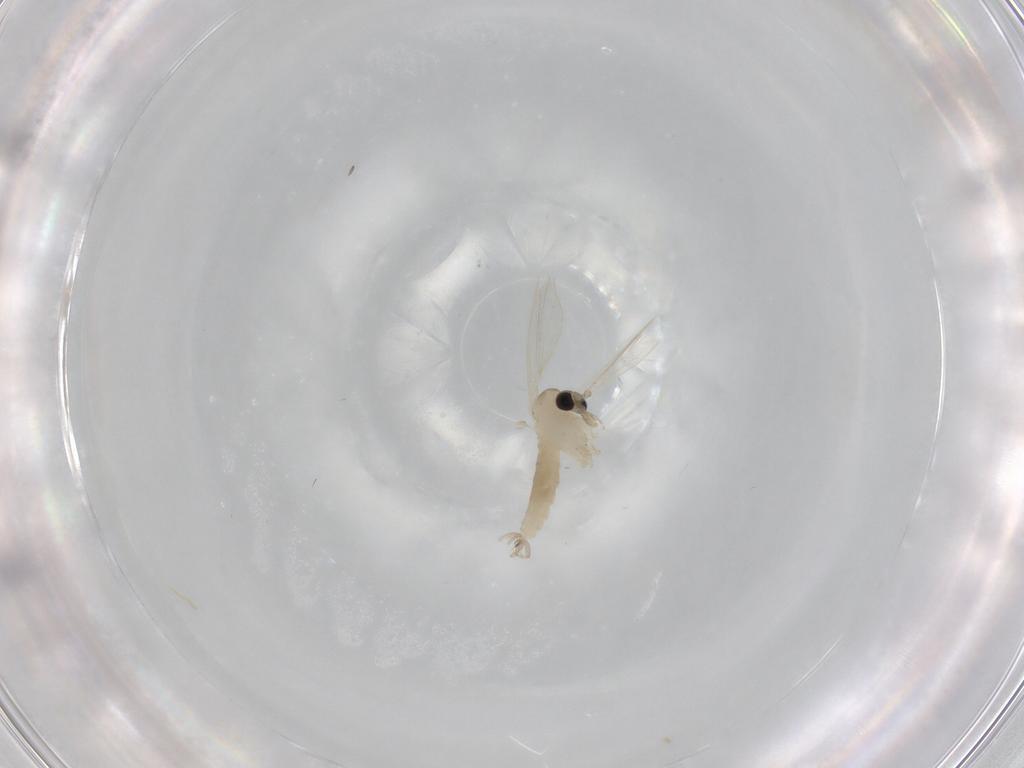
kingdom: Animalia
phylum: Arthropoda
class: Insecta
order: Diptera
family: Psychodidae
